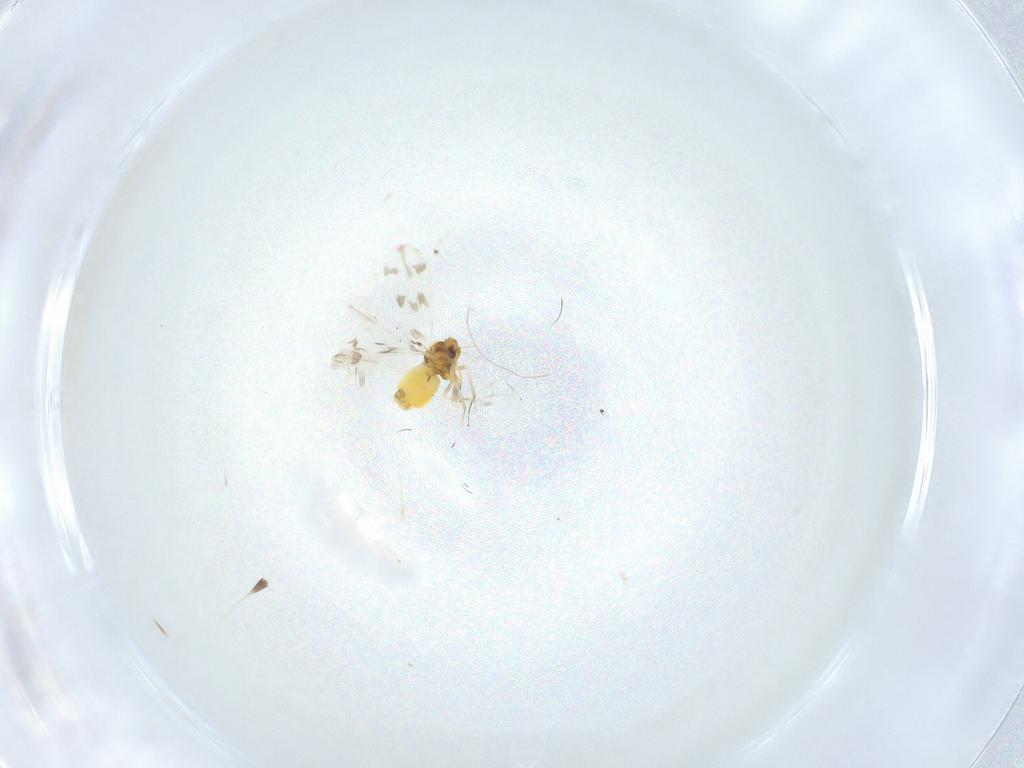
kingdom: Animalia
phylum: Arthropoda
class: Insecta
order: Hemiptera
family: Aleyrodidae
